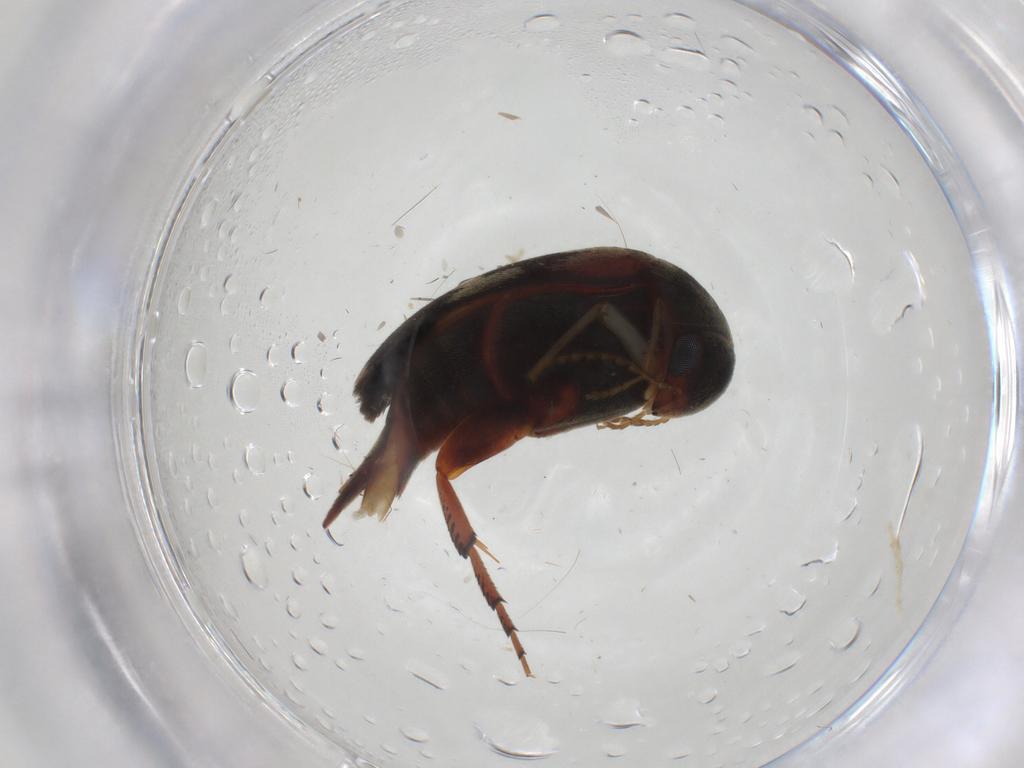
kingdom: Animalia
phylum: Arthropoda
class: Insecta
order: Coleoptera
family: Mordellidae
